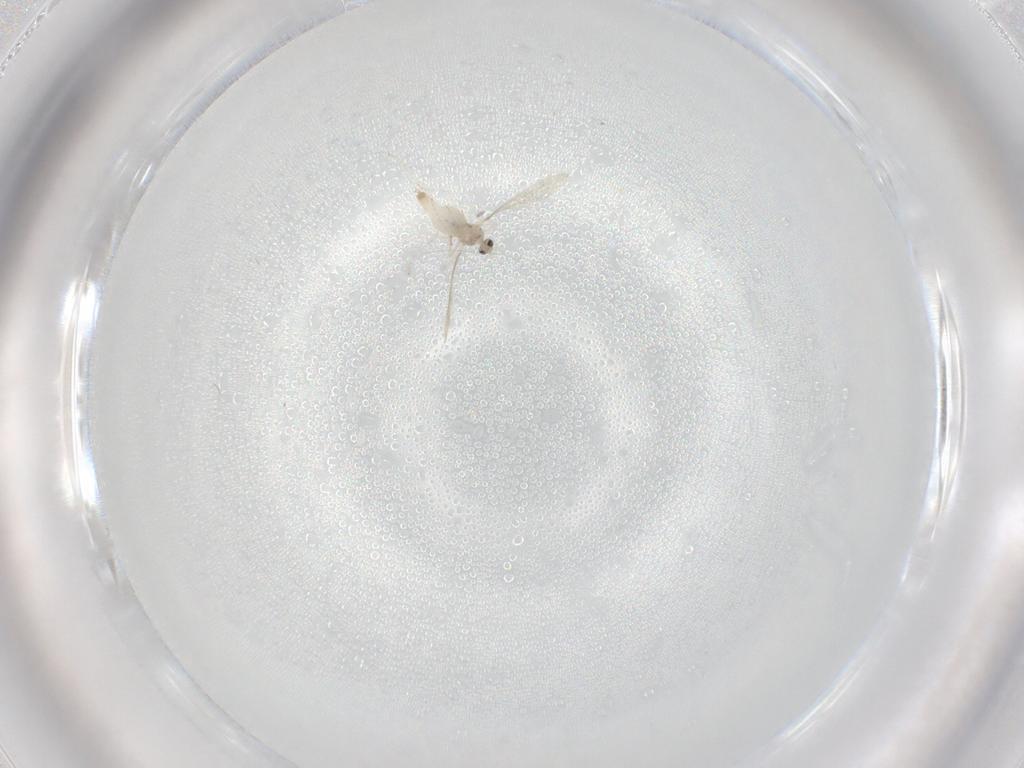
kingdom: Animalia
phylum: Arthropoda
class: Insecta
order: Diptera
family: Cecidomyiidae
